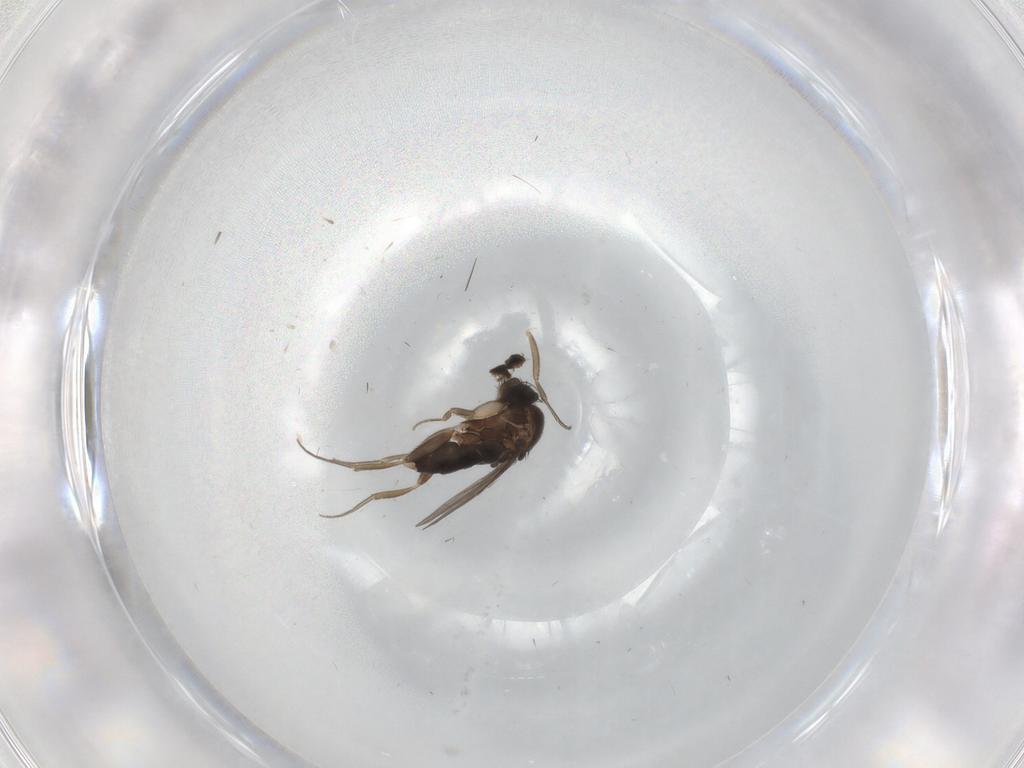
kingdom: Animalia
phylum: Arthropoda
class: Insecta
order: Diptera
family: Phoridae
